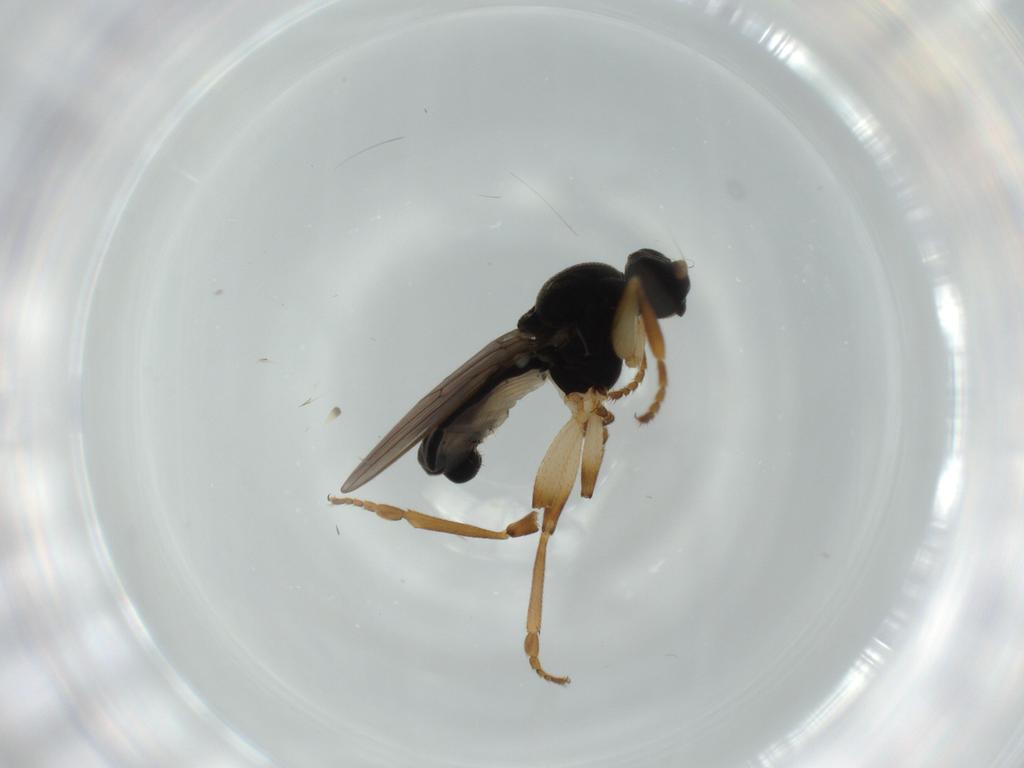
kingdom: Animalia
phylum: Arthropoda
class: Insecta
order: Diptera
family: Sphaeroceridae
